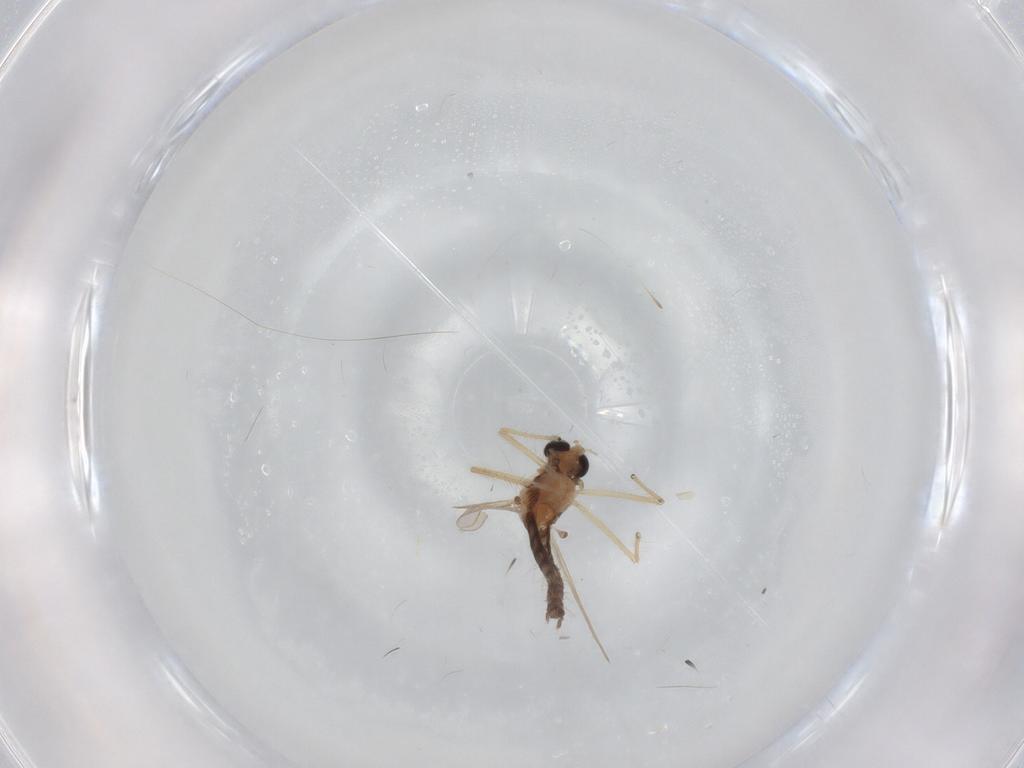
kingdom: Animalia
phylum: Arthropoda
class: Insecta
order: Diptera
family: Chironomidae
